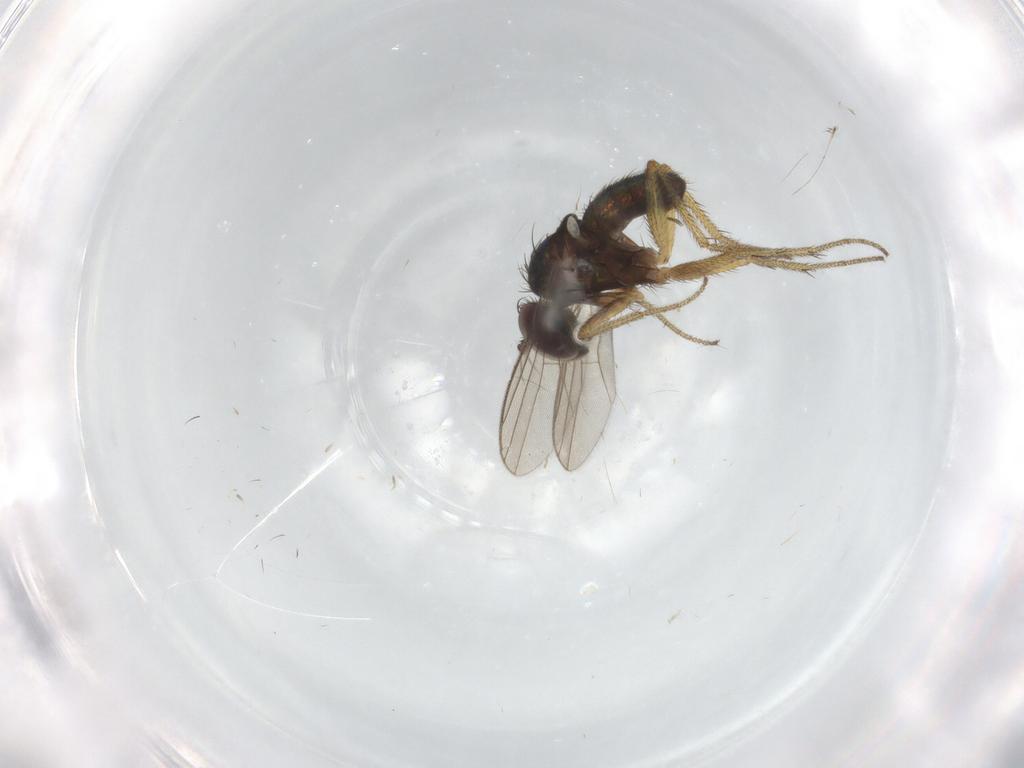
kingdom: Animalia
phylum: Arthropoda
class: Insecta
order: Diptera
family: Dolichopodidae
